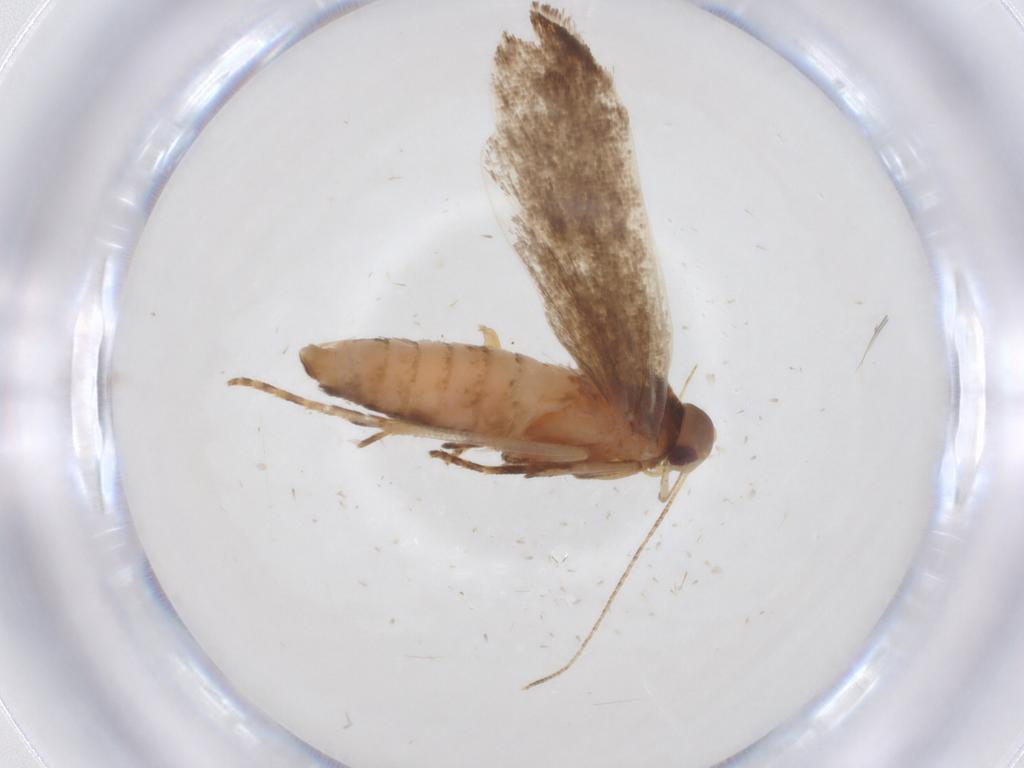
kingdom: Animalia
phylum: Arthropoda
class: Insecta
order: Lepidoptera
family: Gelechiidae
